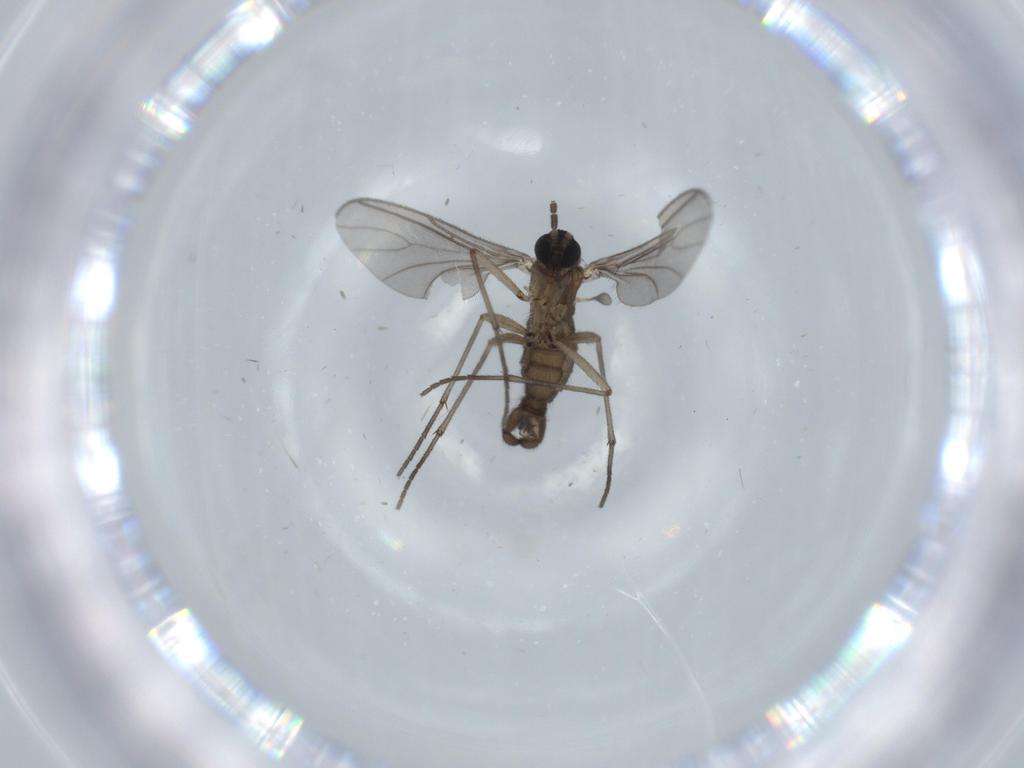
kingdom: Animalia
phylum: Arthropoda
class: Insecta
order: Diptera
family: Sciaridae
